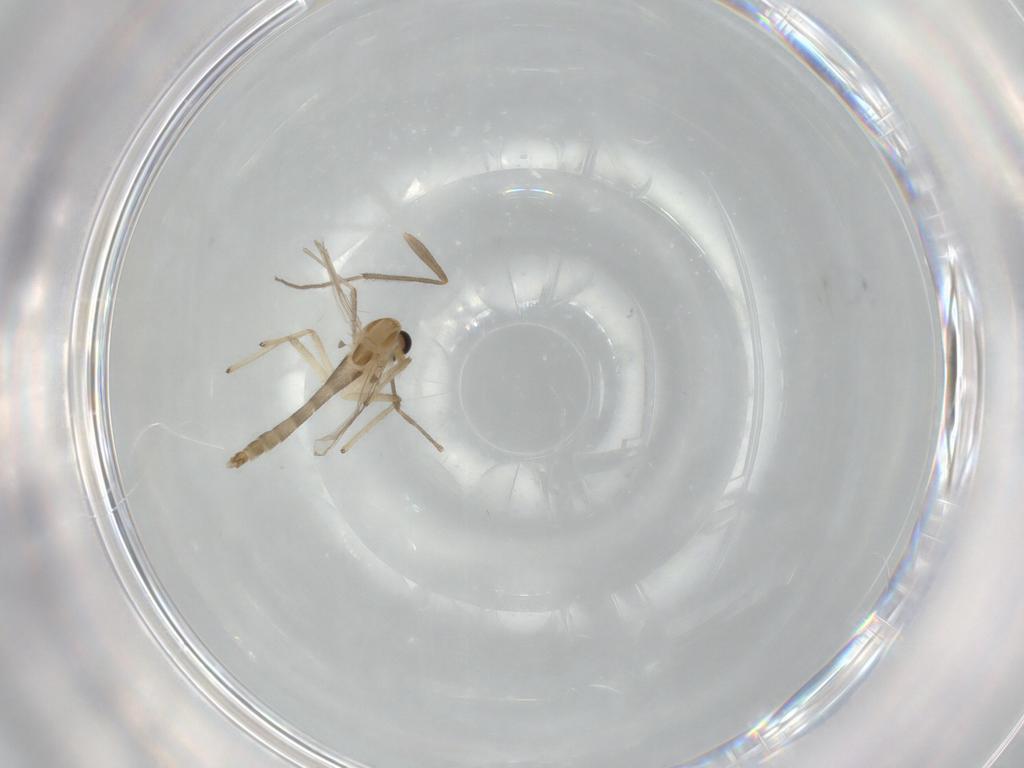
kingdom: Animalia
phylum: Arthropoda
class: Insecta
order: Diptera
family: Chironomidae
